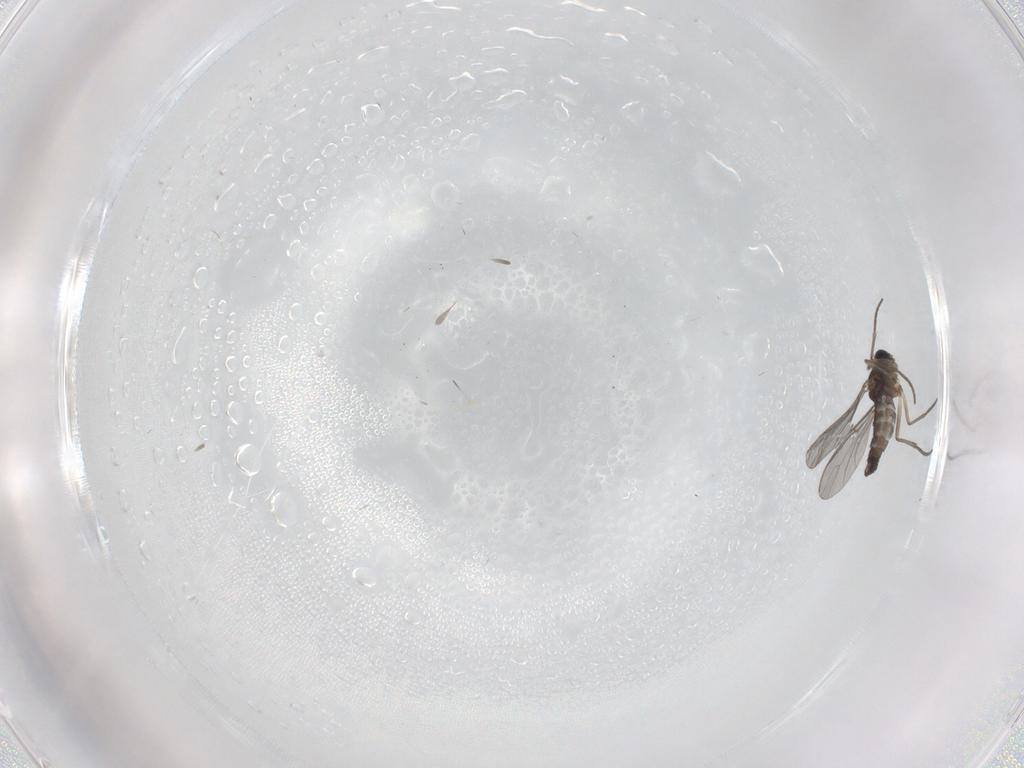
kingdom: Animalia
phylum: Arthropoda
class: Insecta
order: Diptera
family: Sciaridae
